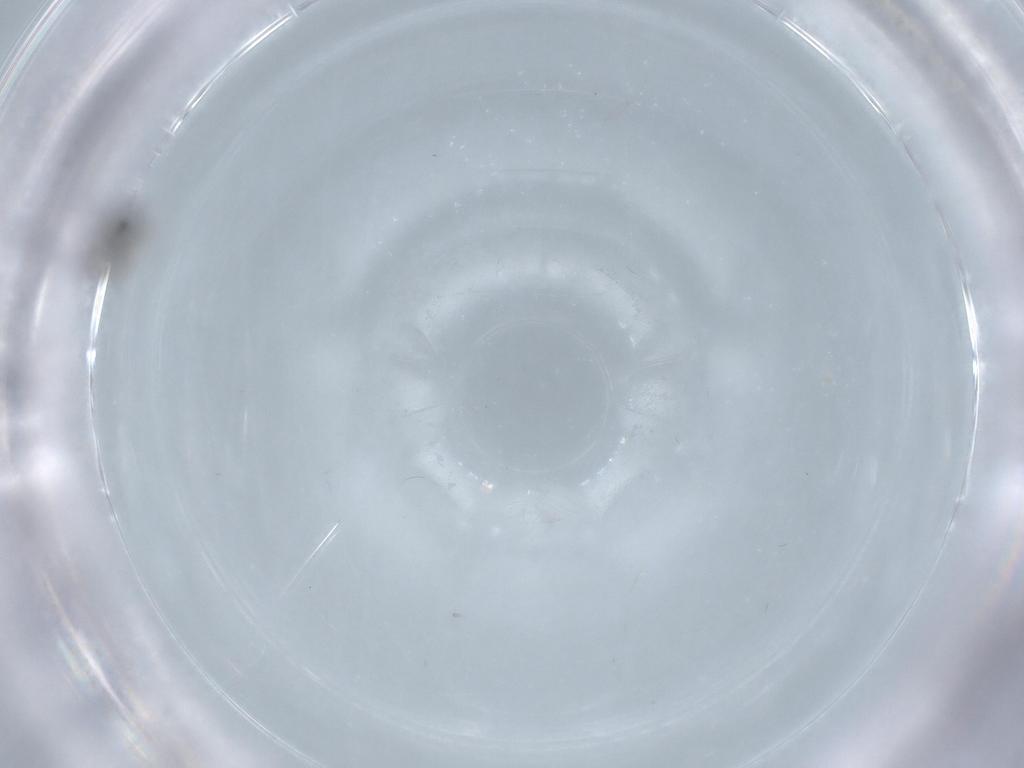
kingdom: Animalia
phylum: Arthropoda
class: Insecta
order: Hymenoptera
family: Platygastridae
